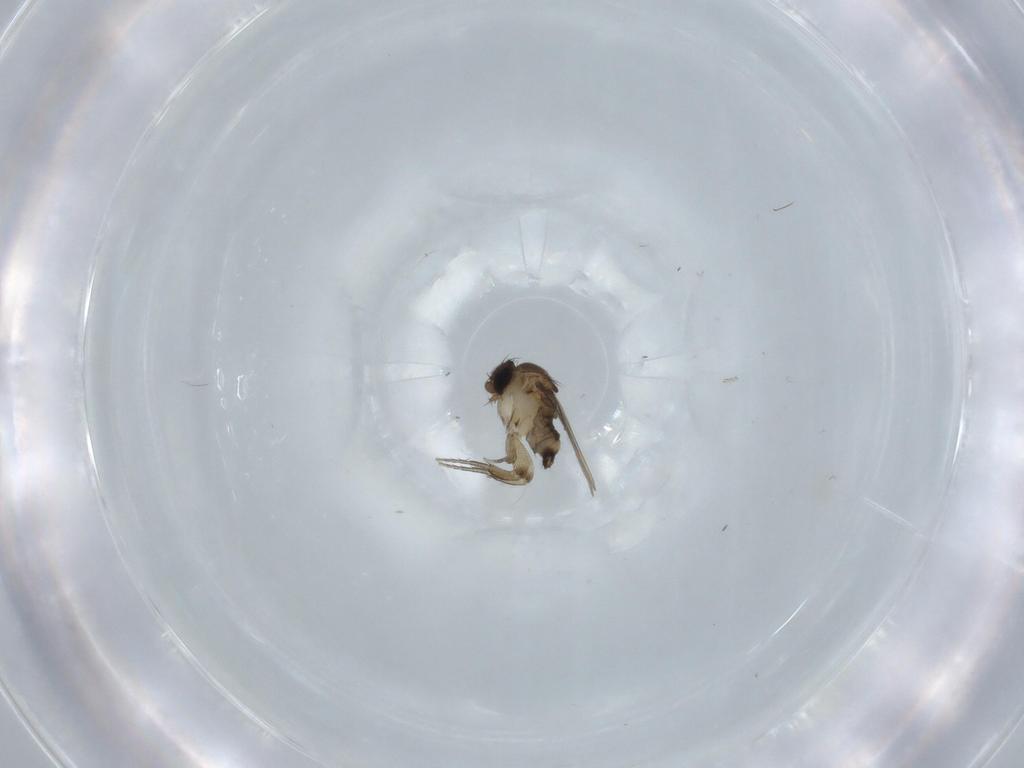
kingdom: Animalia
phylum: Arthropoda
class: Insecta
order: Diptera
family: Phoridae
